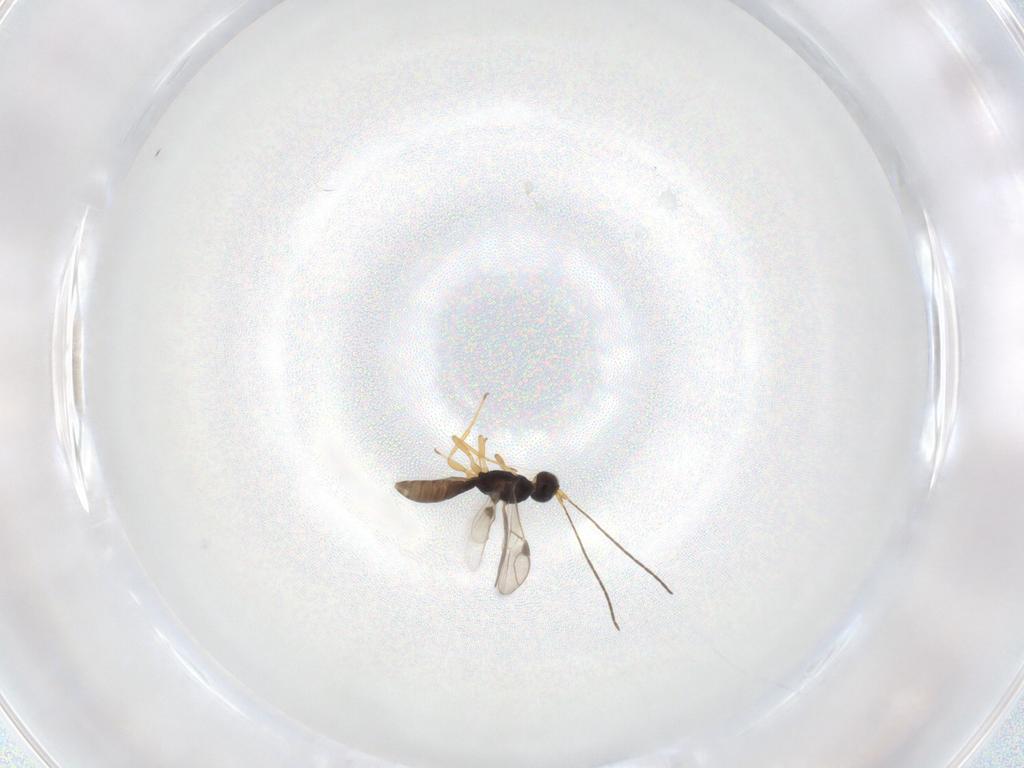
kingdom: Animalia
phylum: Arthropoda
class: Insecta
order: Hymenoptera
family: Braconidae
